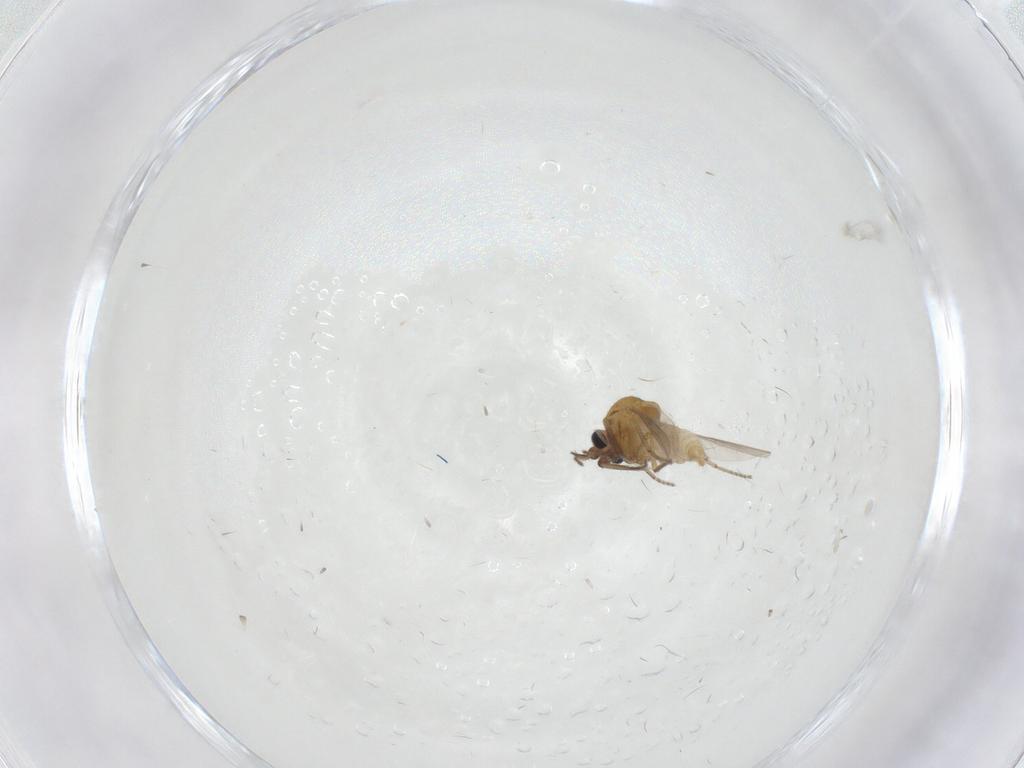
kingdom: Animalia
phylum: Arthropoda
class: Insecta
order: Diptera
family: Ceratopogonidae
